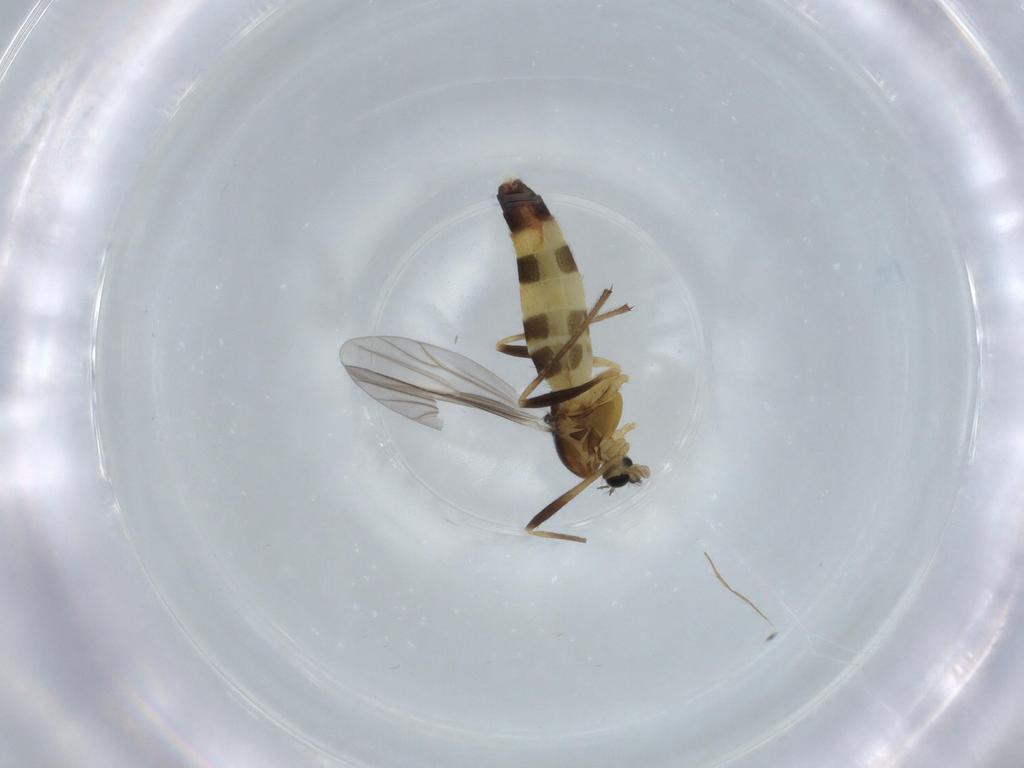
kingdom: Animalia
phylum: Arthropoda
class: Insecta
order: Diptera
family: Chironomidae
